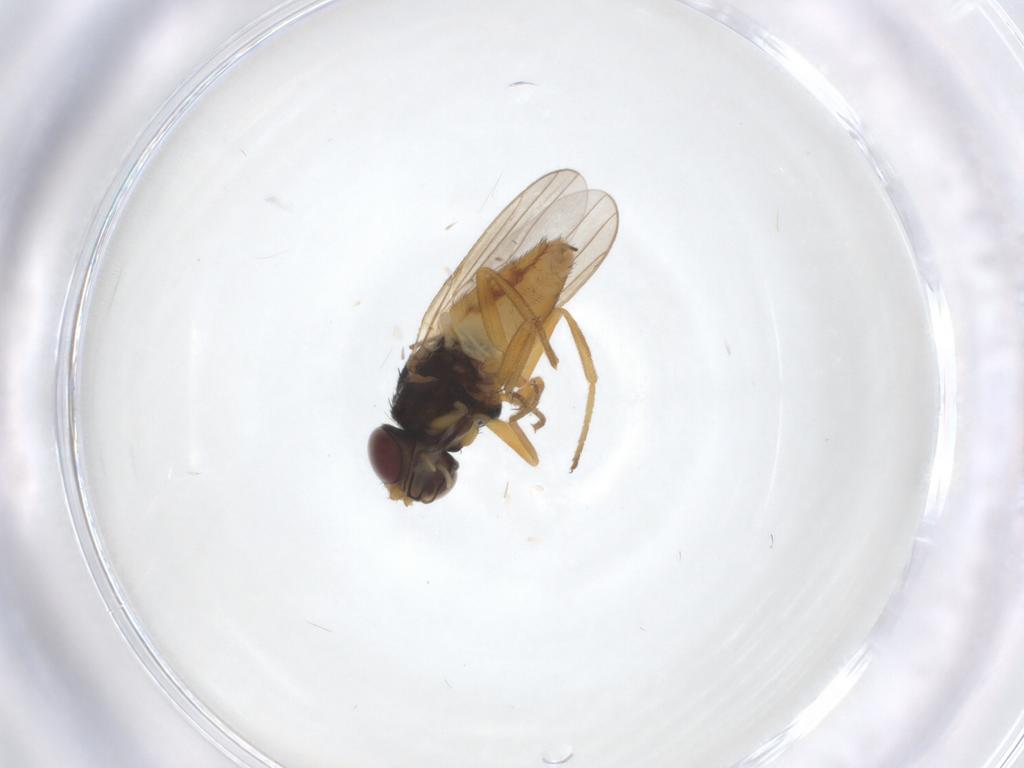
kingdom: Animalia
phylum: Arthropoda
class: Insecta
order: Diptera
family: Chloropidae
